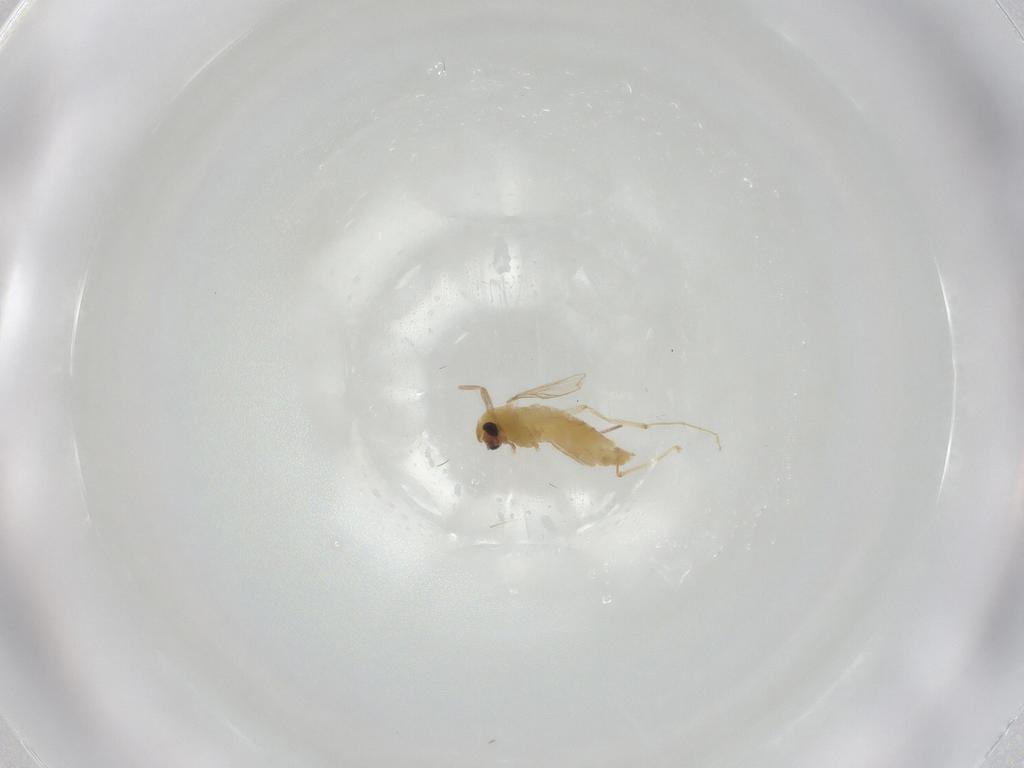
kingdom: Animalia
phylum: Arthropoda
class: Insecta
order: Diptera
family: Chironomidae
